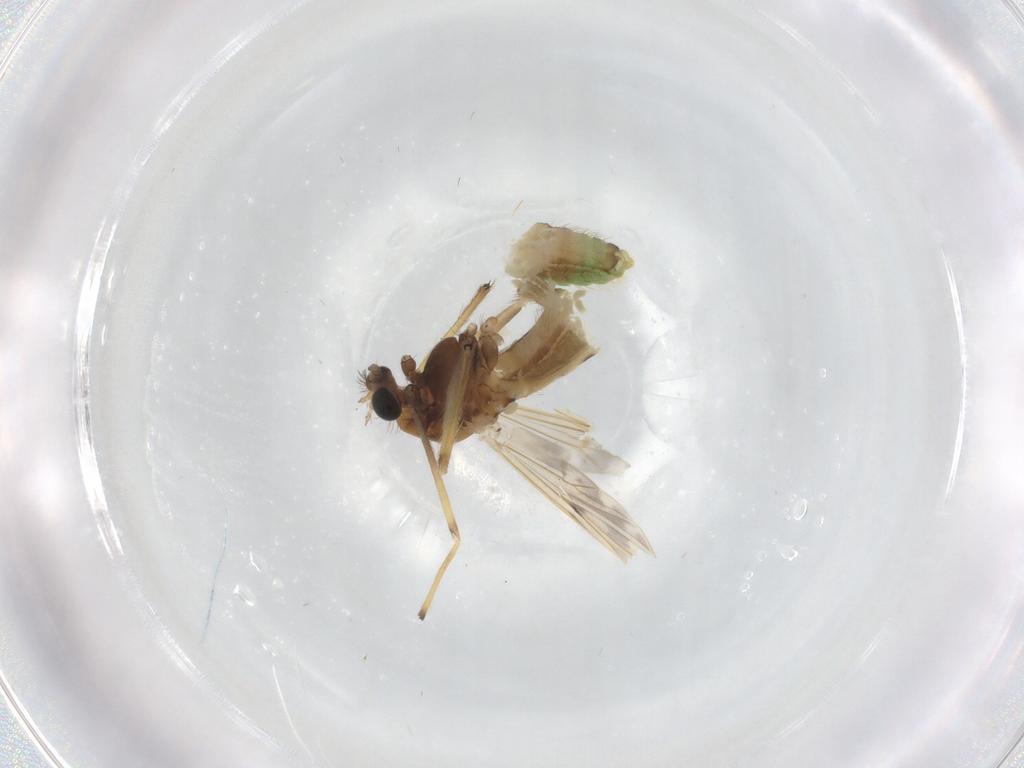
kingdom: Animalia
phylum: Arthropoda
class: Insecta
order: Diptera
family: Chironomidae
